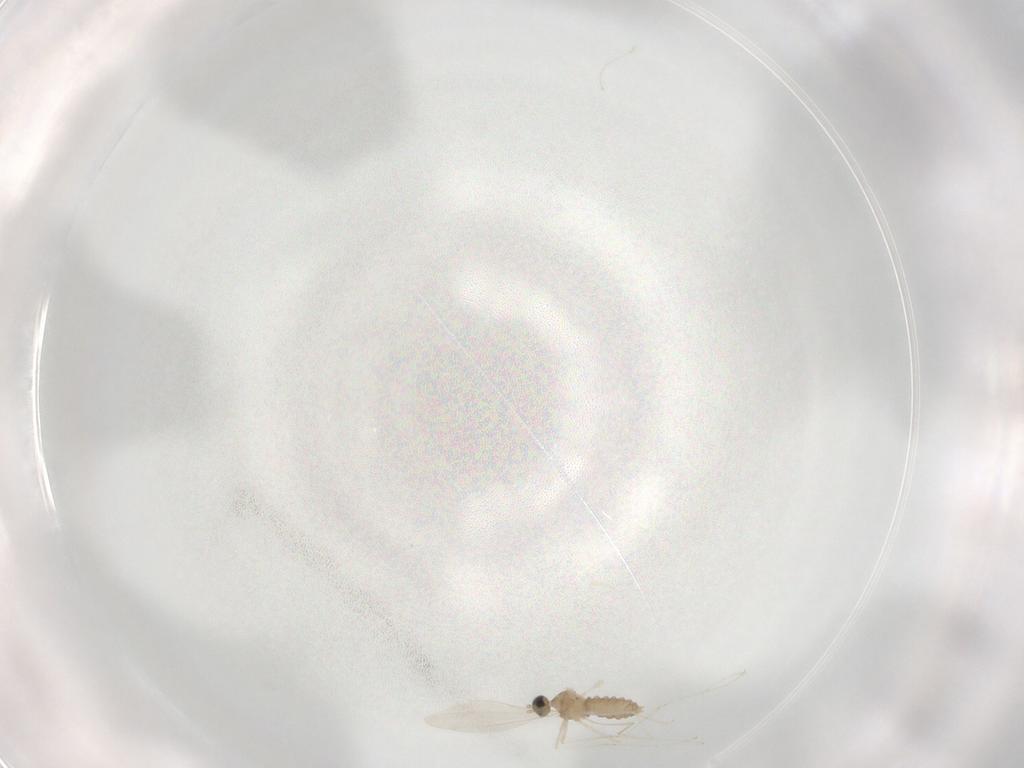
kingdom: Animalia
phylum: Arthropoda
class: Insecta
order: Diptera
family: Cecidomyiidae
